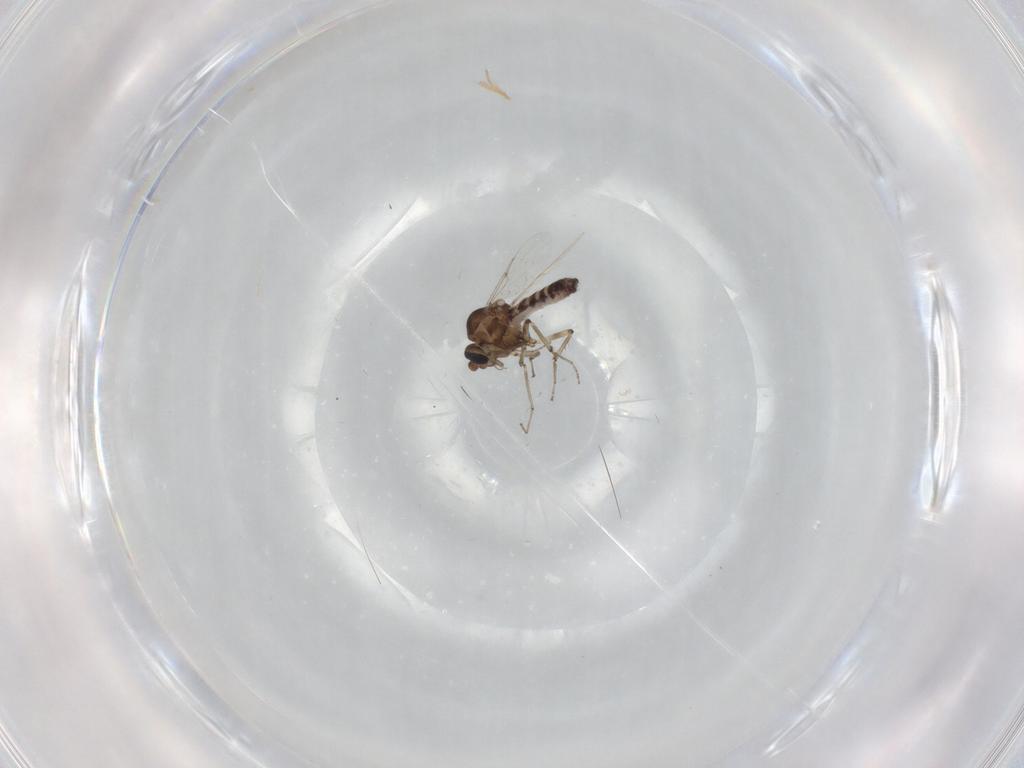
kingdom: Animalia
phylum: Arthropoda
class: Insecta
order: Diptera
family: Ceratopogonidae
